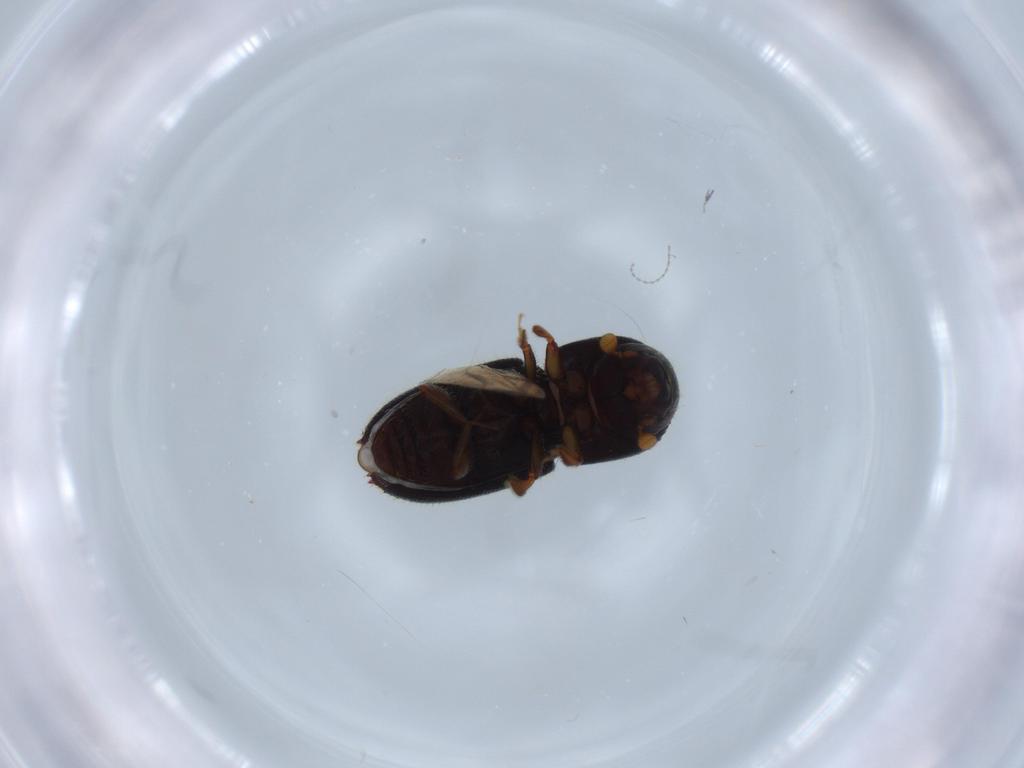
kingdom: Animalia
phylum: Arthropoda
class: Insecta
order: Coleoptera
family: Curculionidae
